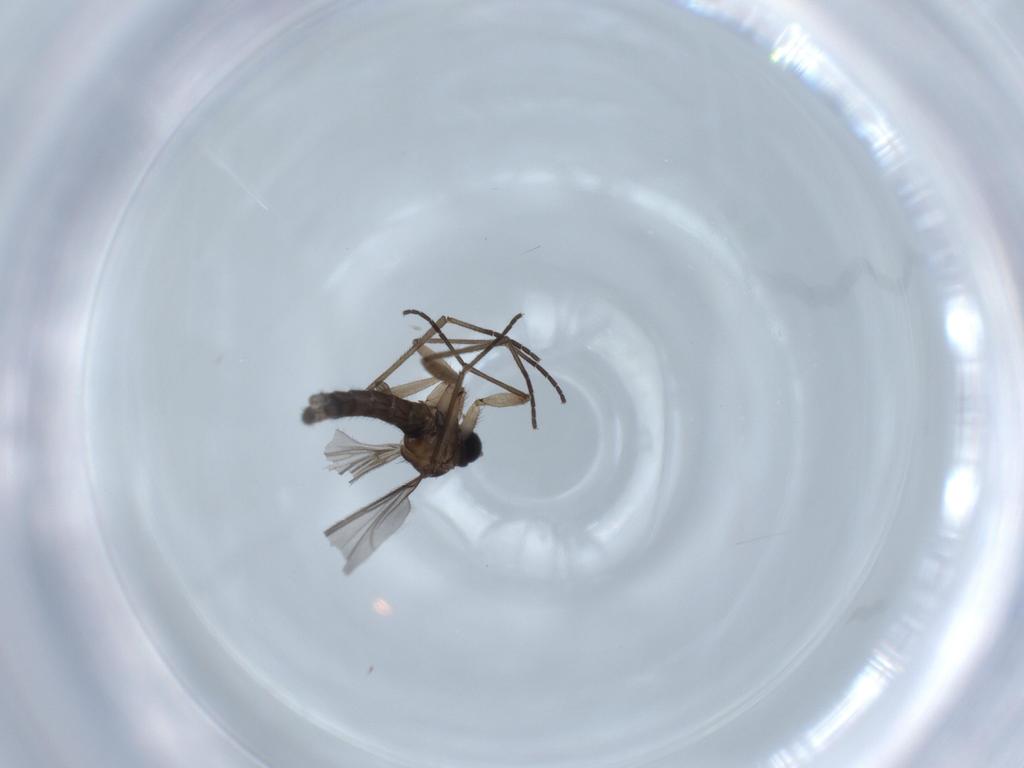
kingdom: Animalia
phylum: Arthropoda
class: Insecta
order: Diptera
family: Sciaridae
